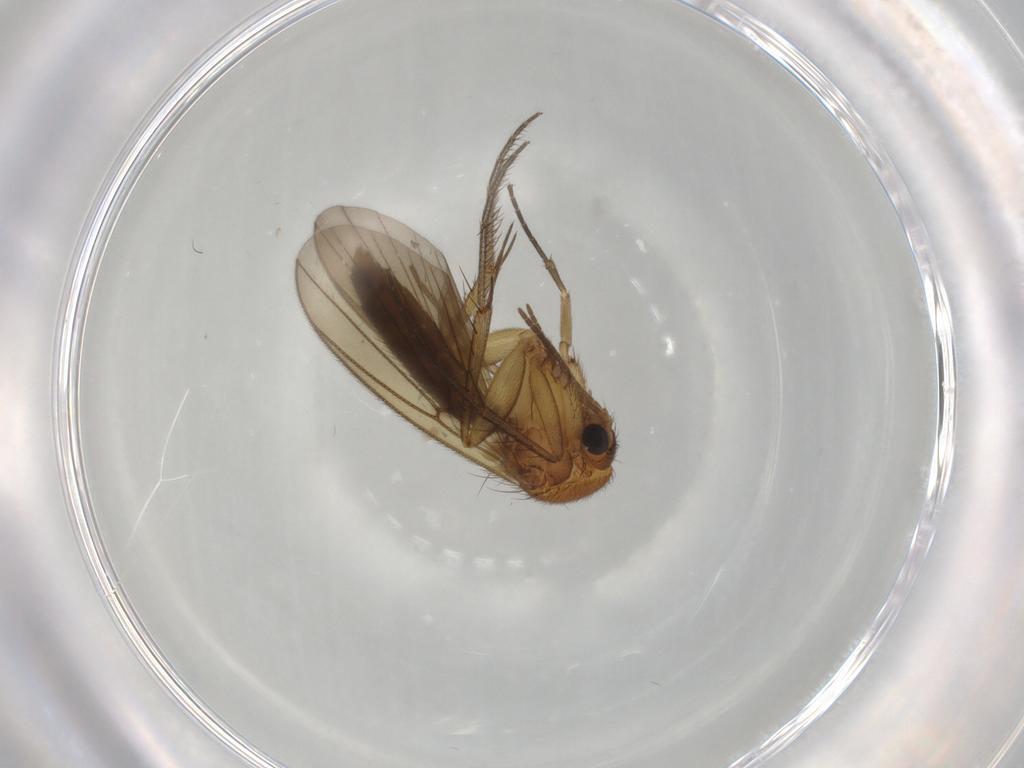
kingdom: Animalia
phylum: Arthropoda
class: Insecta
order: Diptera
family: Phoridae
